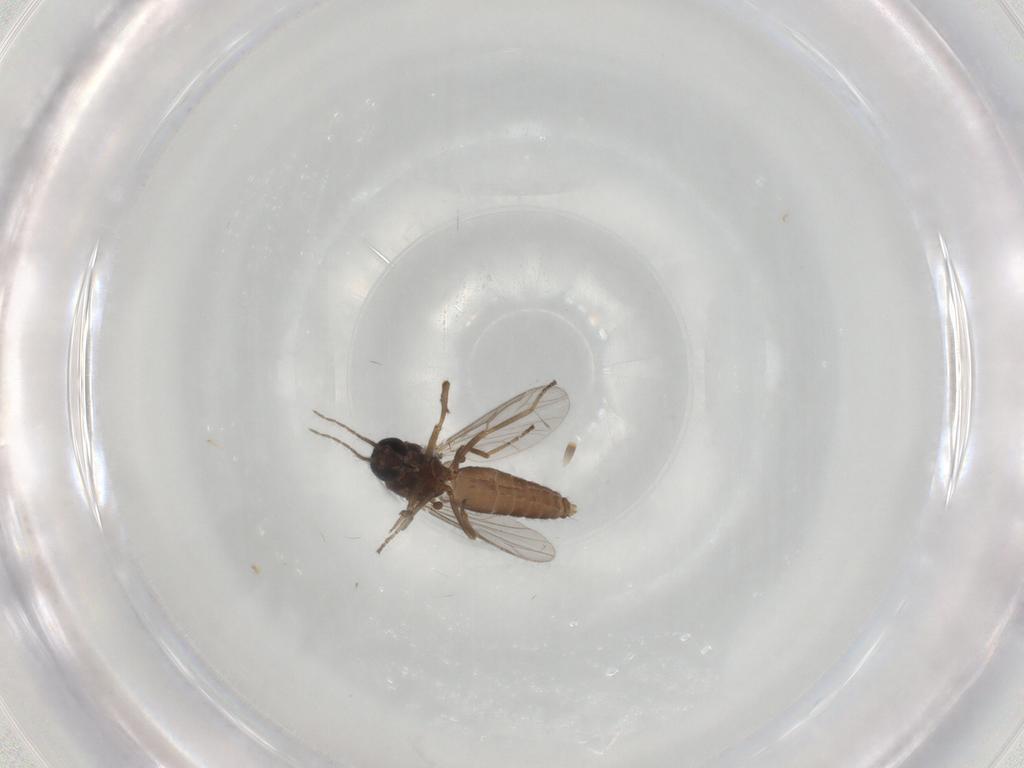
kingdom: Animalia
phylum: Arthropoda
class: Insecta
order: Diptera
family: Ceratopogonidae
